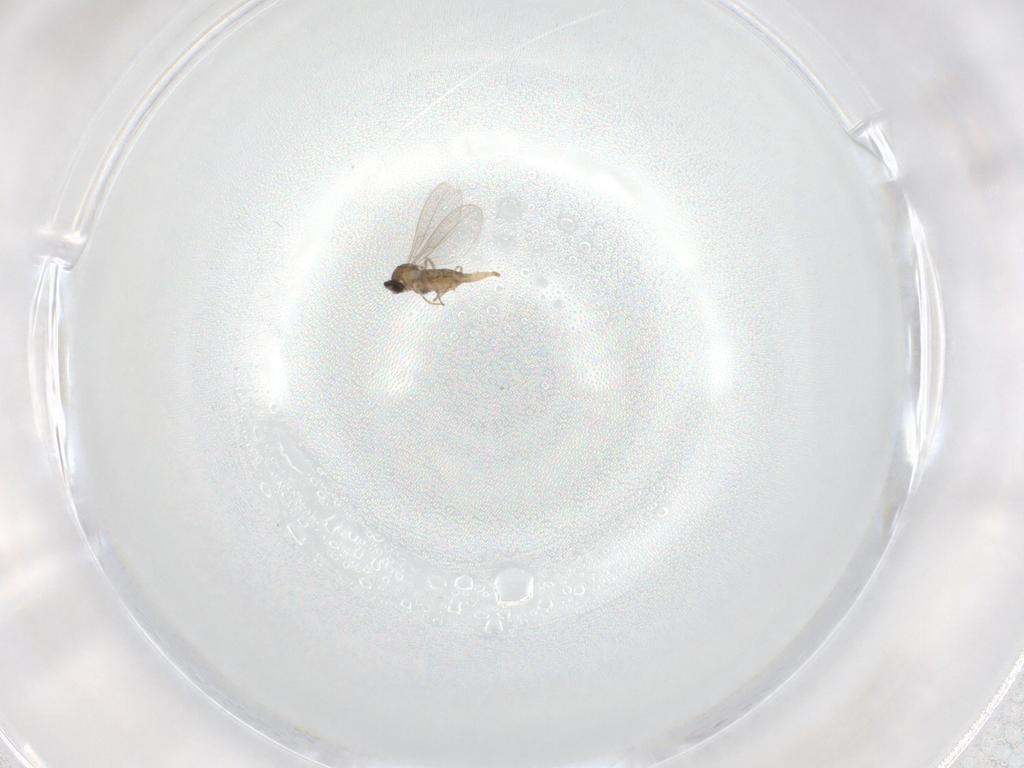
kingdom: Animalia
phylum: Arthropoda
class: Insecta
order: Diptera
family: Cecidomyiidae
